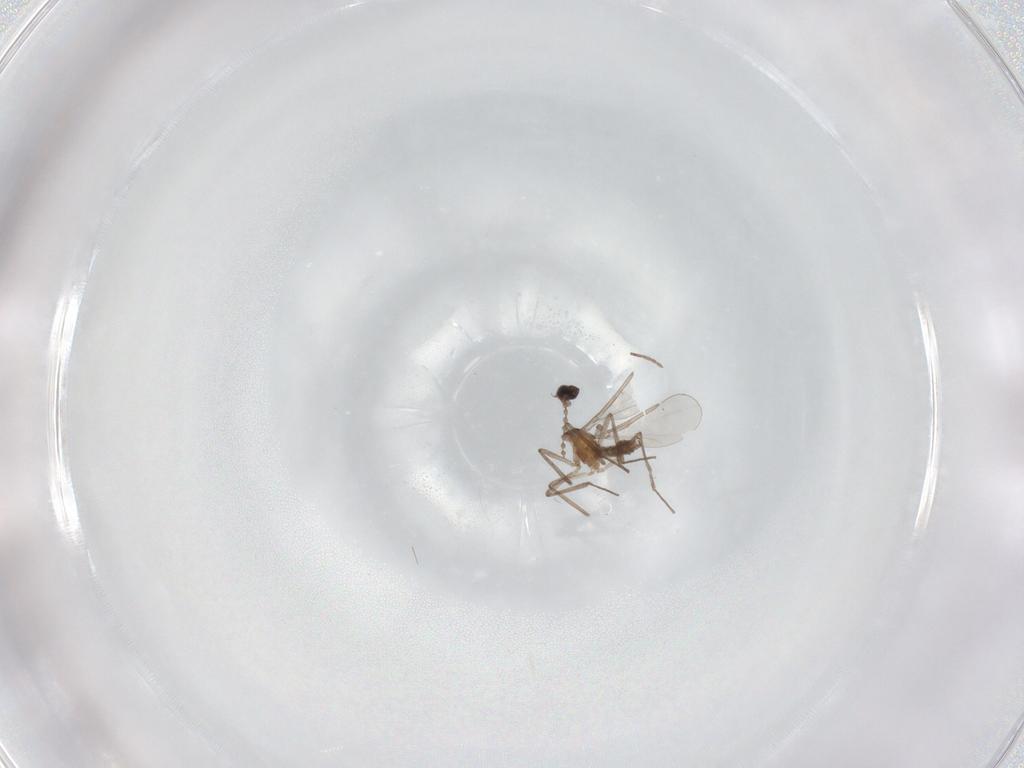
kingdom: Animalia
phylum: Arthropoda
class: Insecta
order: Diptera
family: Cecidomyiidae
